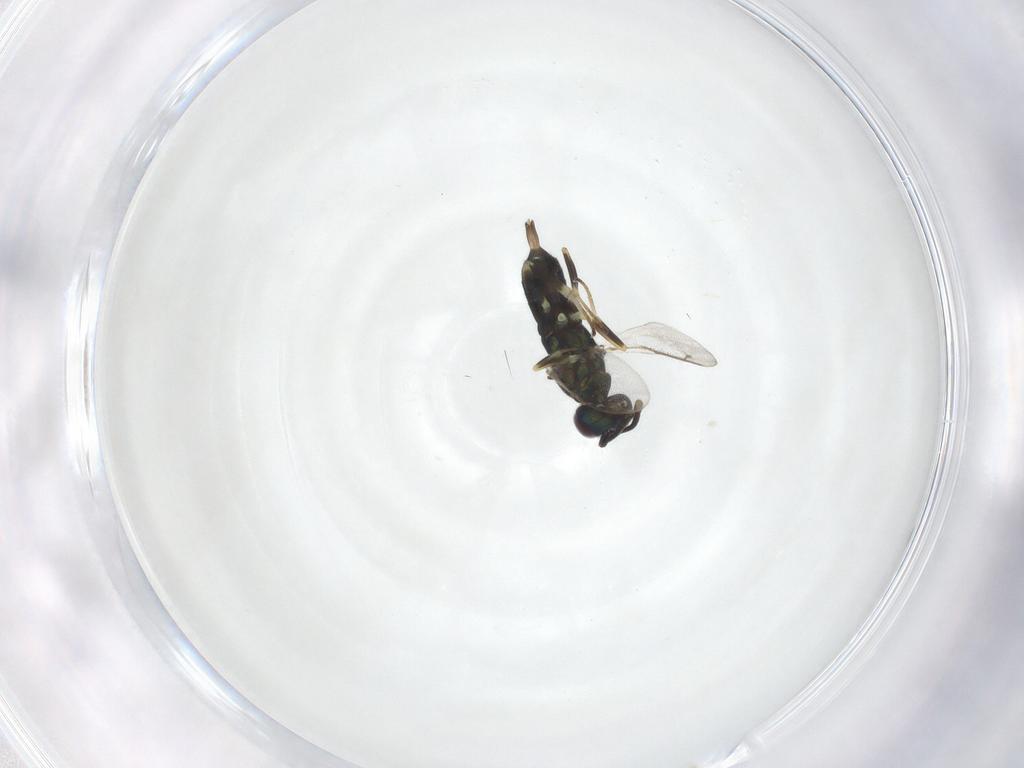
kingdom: Animalia
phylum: Arthropoda
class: Insecta
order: Hymenoptera
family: Eupelmidae
